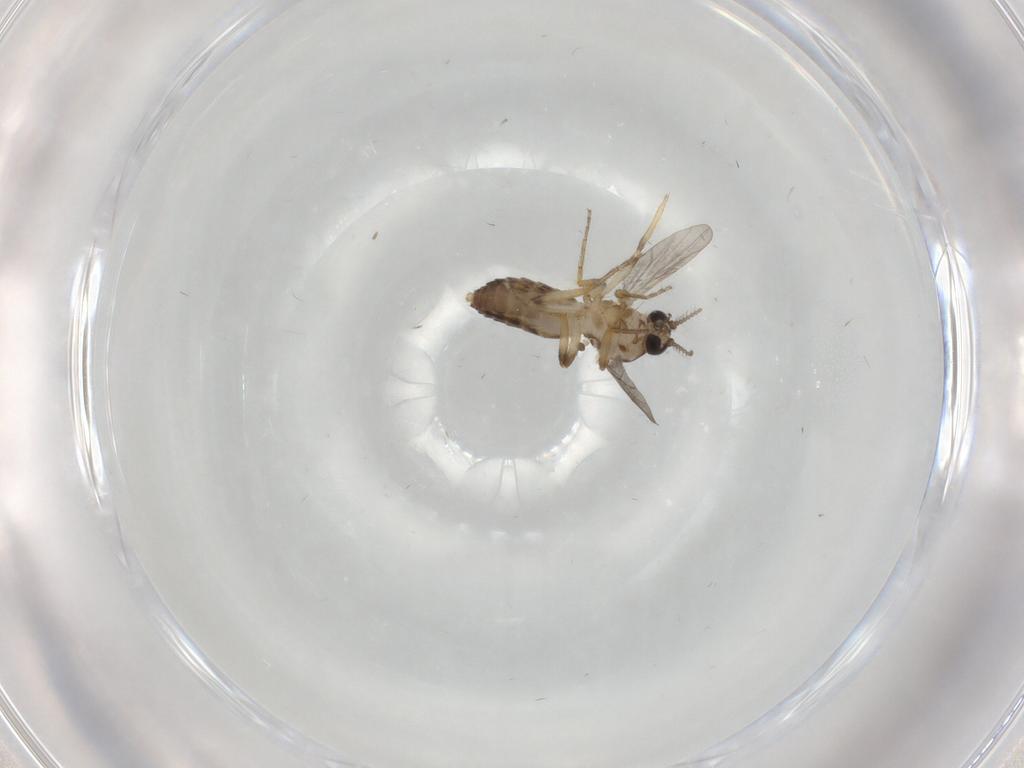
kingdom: Animalia
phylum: Arthropoda
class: Insecta
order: Diptera
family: Ceratopogonidae
